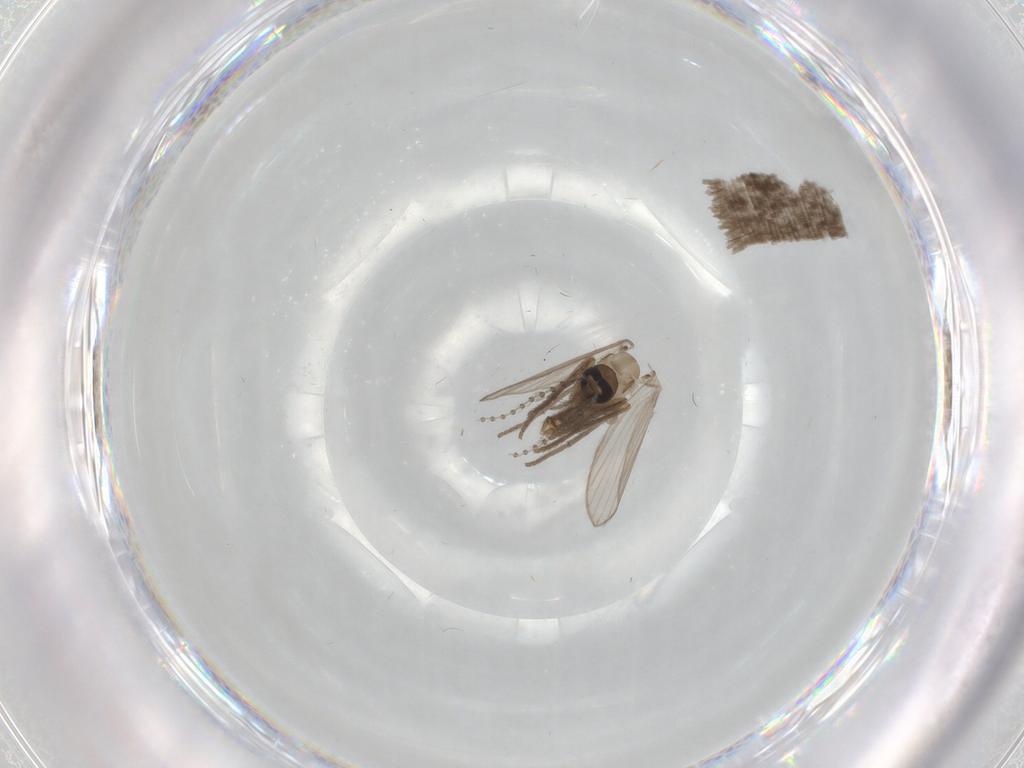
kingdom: Animalia
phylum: Arthropoda
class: Insecta
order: Diptera
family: Psychodidae
